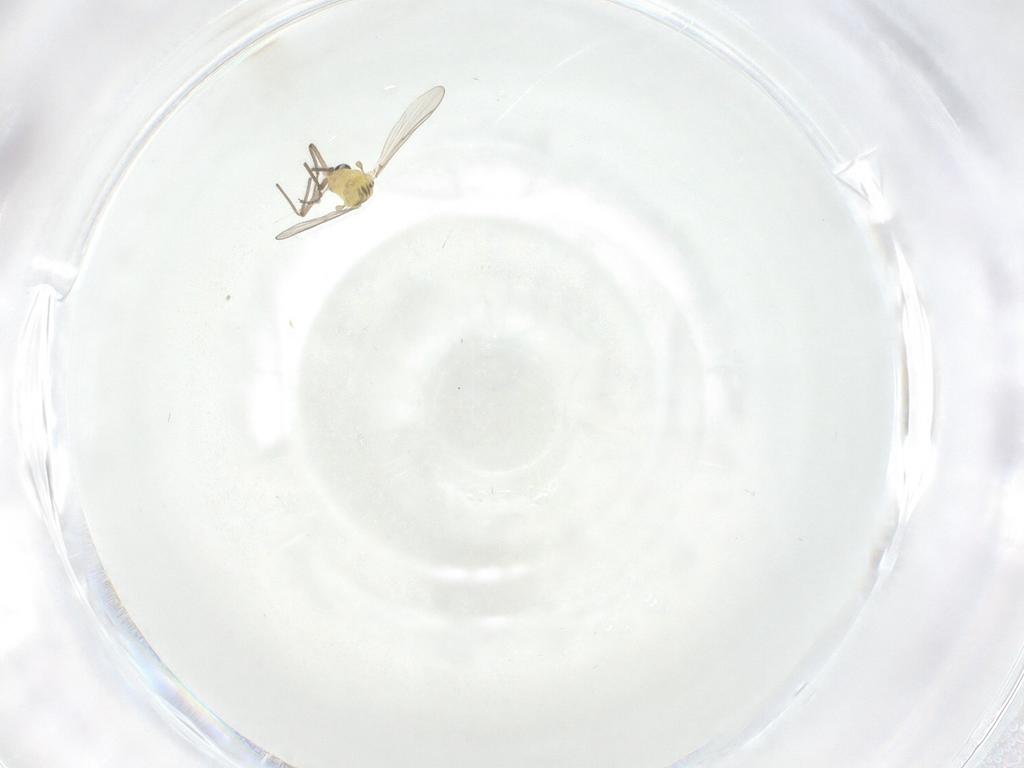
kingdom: Animalia
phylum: Arthropoda
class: Insecta
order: Diptera
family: Chironomidae
